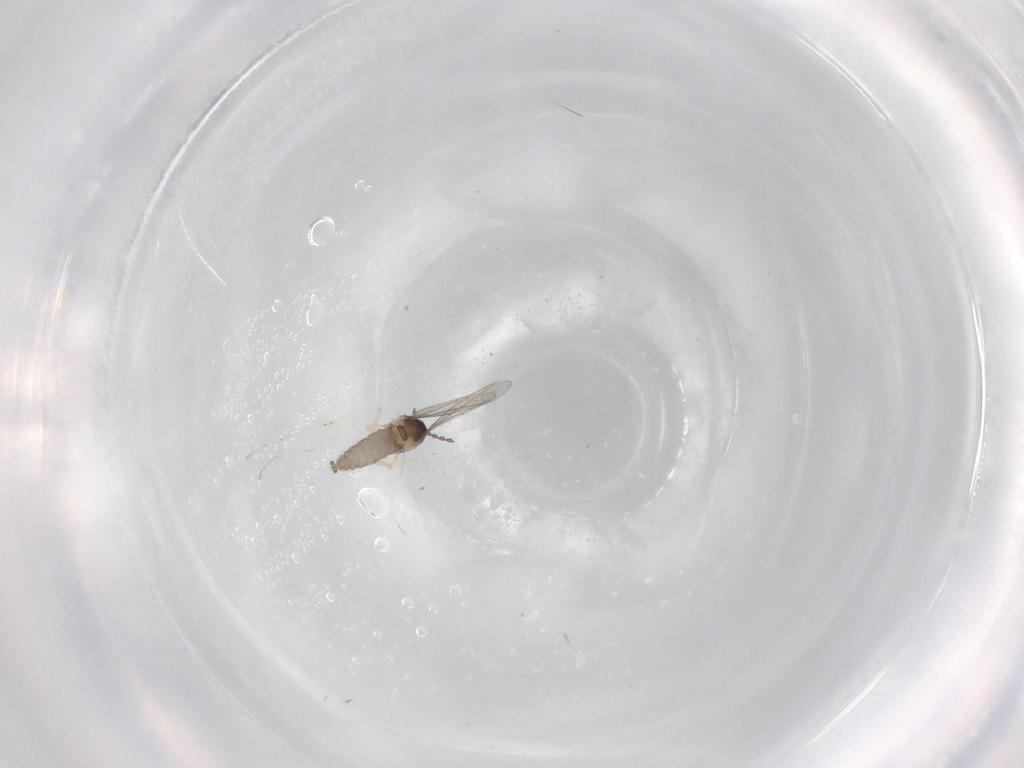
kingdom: Animalia
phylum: Arthropoda
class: Insecta
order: Diptera
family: Cecidomyiidae
